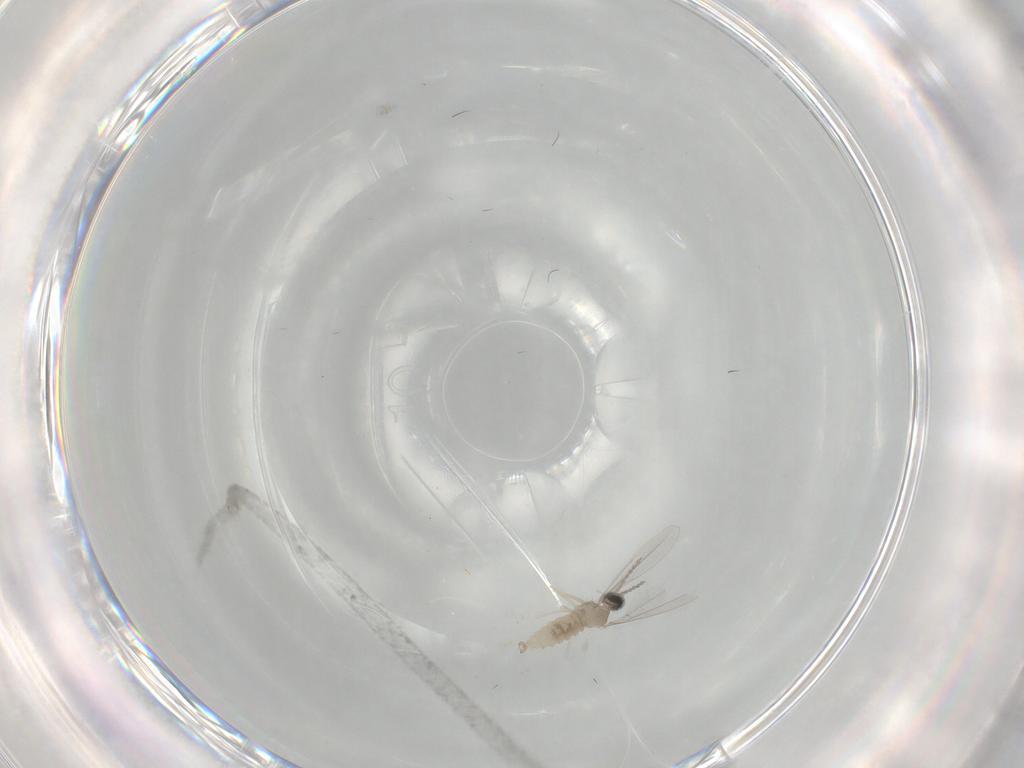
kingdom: Animalia
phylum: Arthropoda
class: Insecta
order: Diptera
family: Cecidomyiidae
